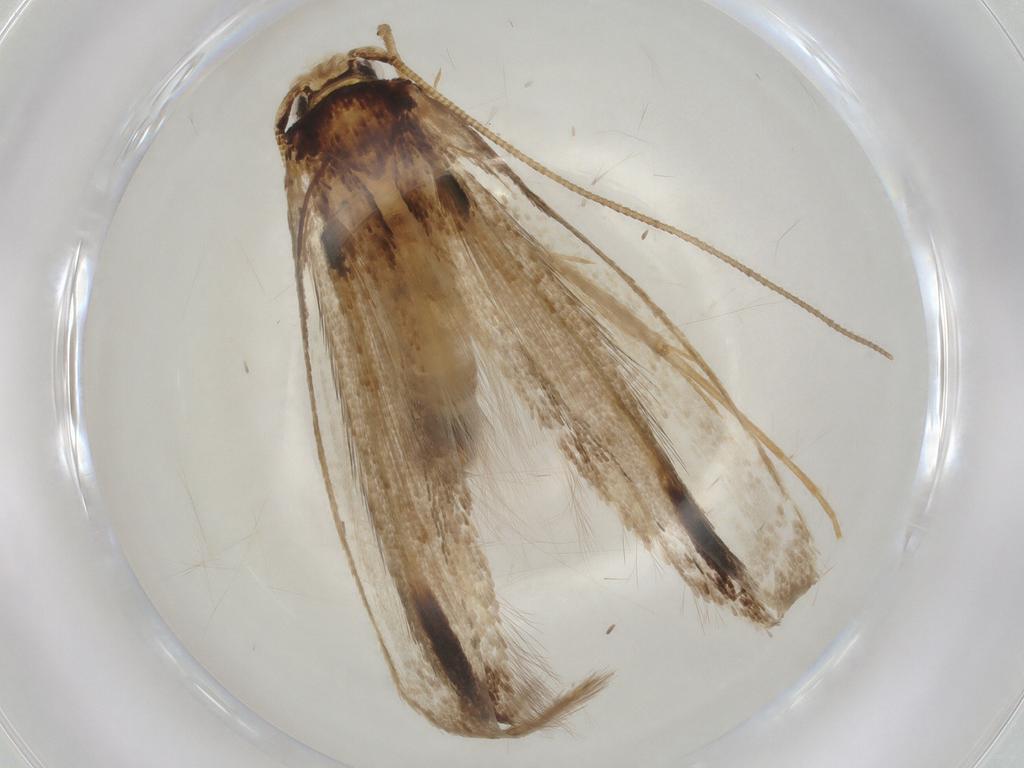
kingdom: Animalia
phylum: Arthropoda
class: Insecta
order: Lepidoptera
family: Tineidae
